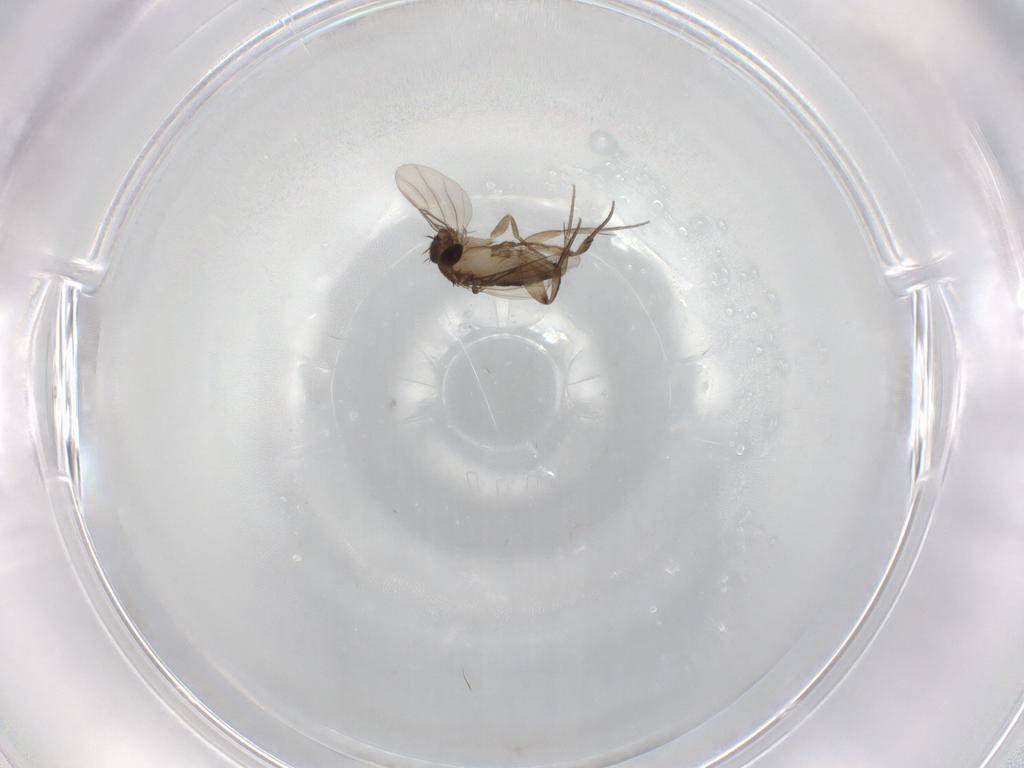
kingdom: Animalia
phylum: Arthropoda
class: Insecta
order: Diptera
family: Phoridae
